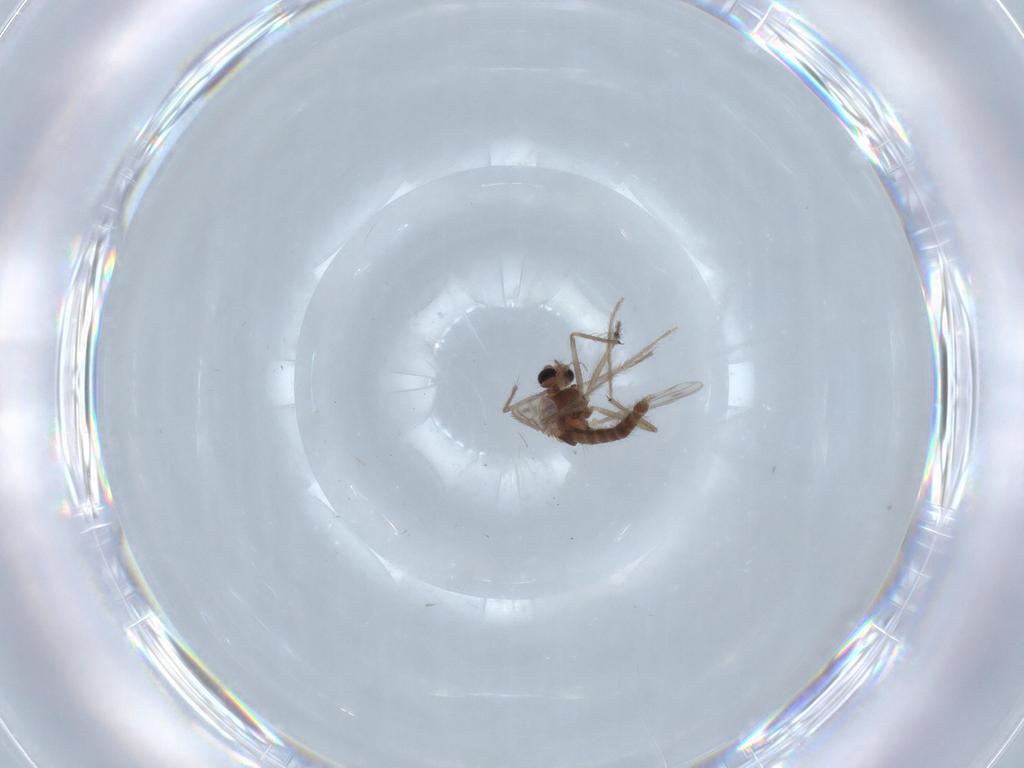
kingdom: Animalia
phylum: Arthropoda
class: Insecta
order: Diptera
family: Chironomidae
